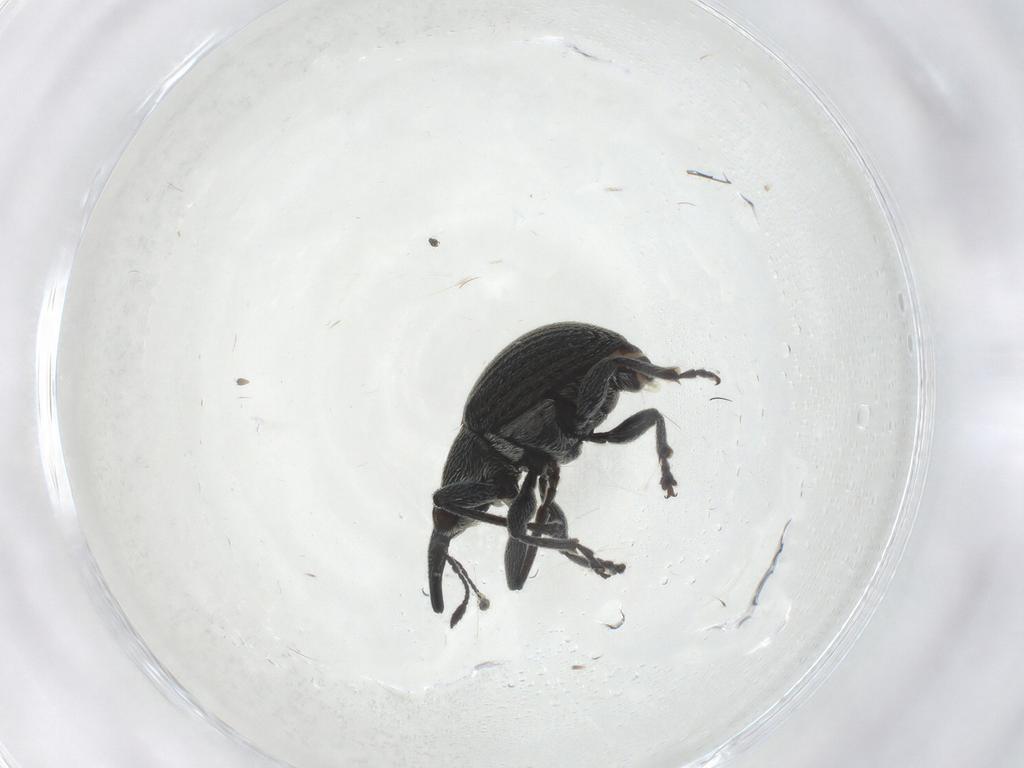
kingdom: Animalia
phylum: Arthropoda
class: Insecta
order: Coleoptera
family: Brentidae
